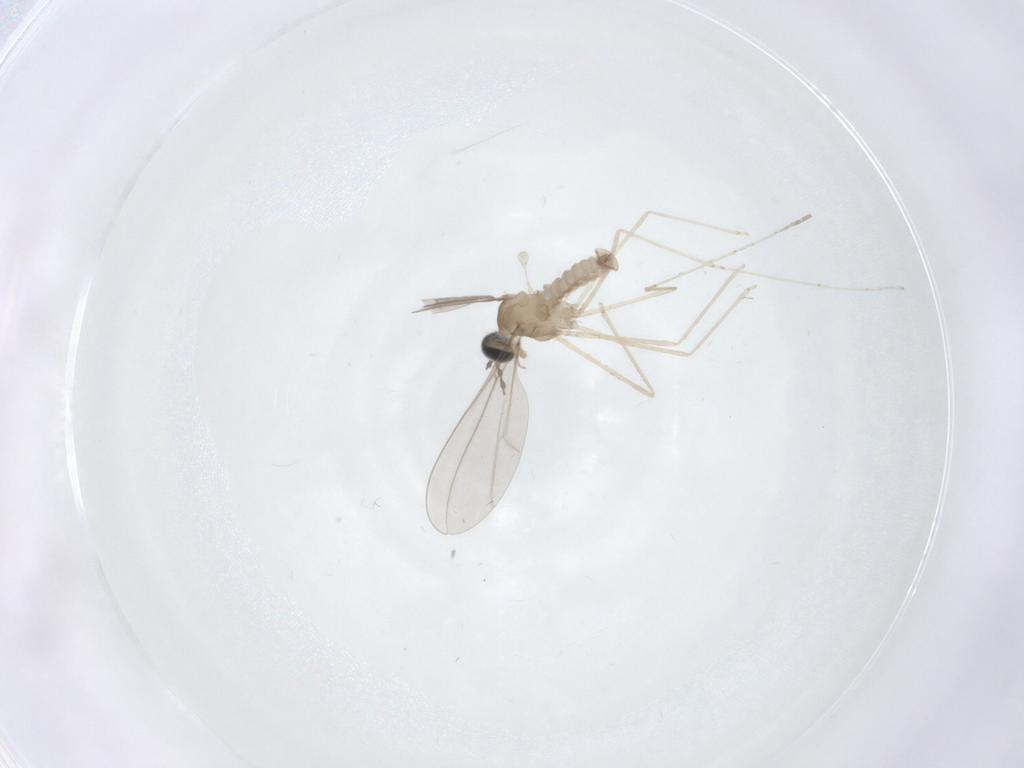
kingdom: Animalia
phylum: Arthropoda
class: Insecta
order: Diptera
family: Cecidomyiidae
